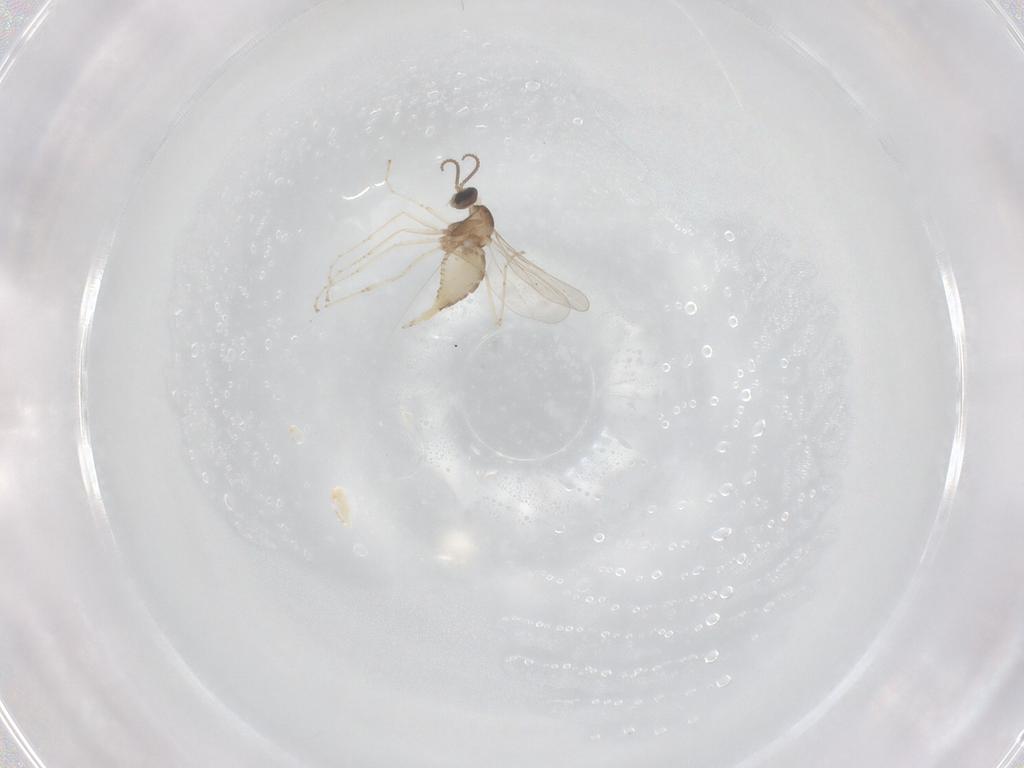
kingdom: Animalia
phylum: Arthropoda
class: Insecta
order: Diptera
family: Cecidomyiidae
